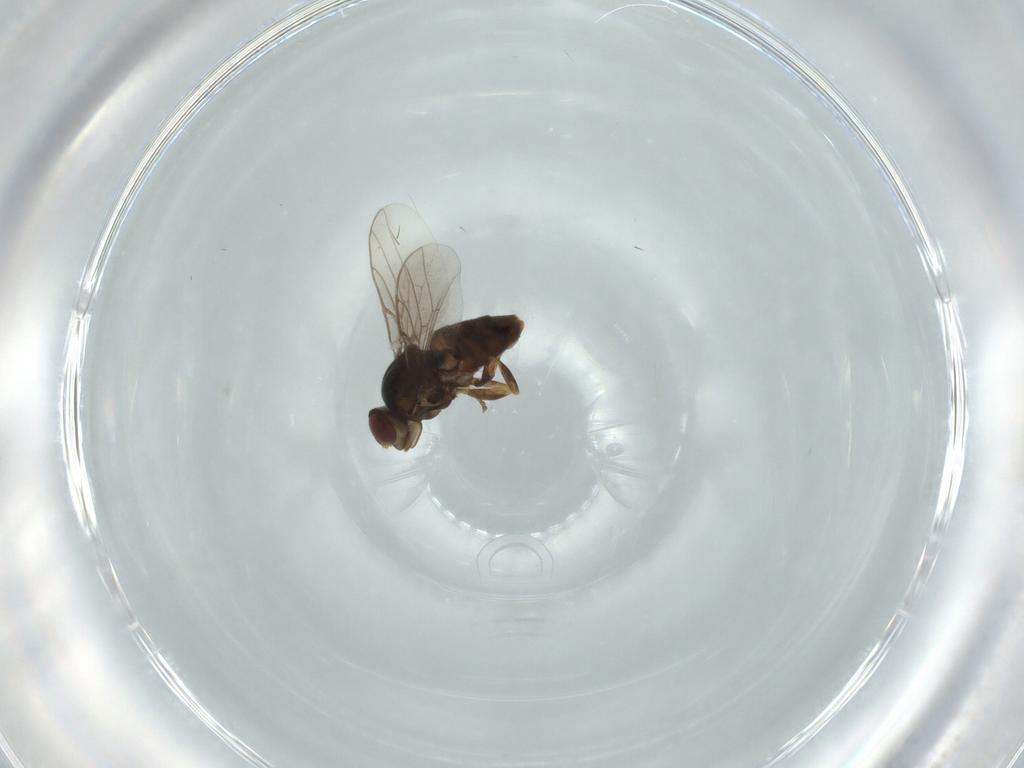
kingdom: Animalia
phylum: Arthropoda
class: Insecta
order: Diptera
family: Chloropidae
